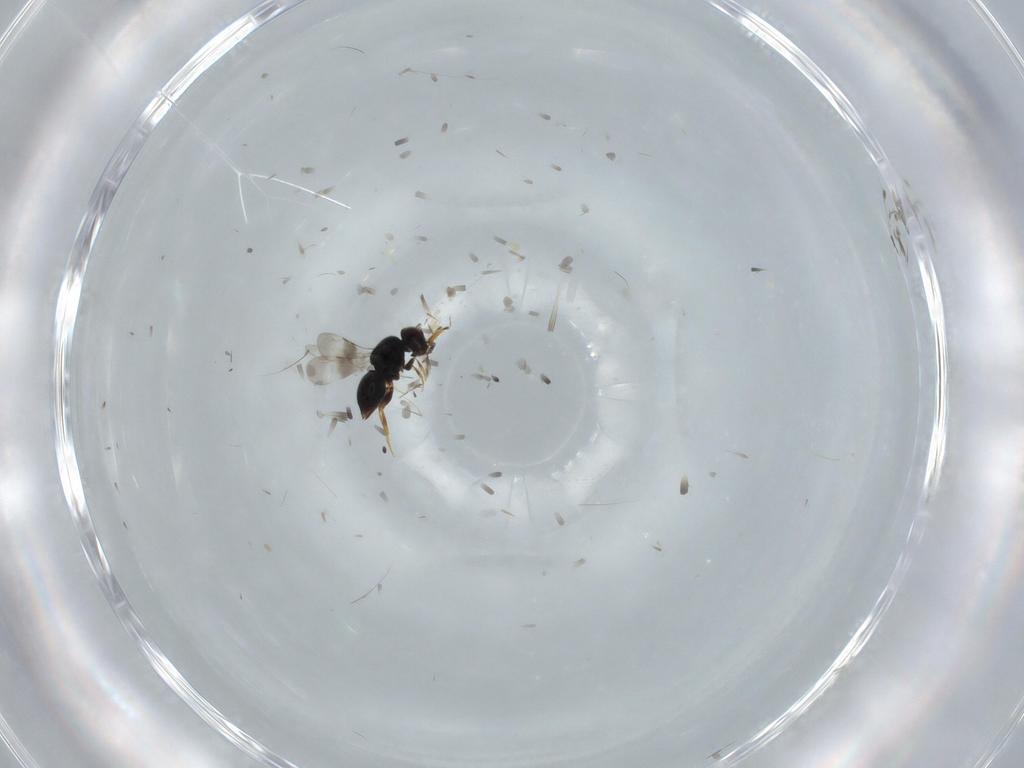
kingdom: Animalia
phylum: Arthropoda
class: Insecta
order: Hymenoptera
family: Ceraphronidae
